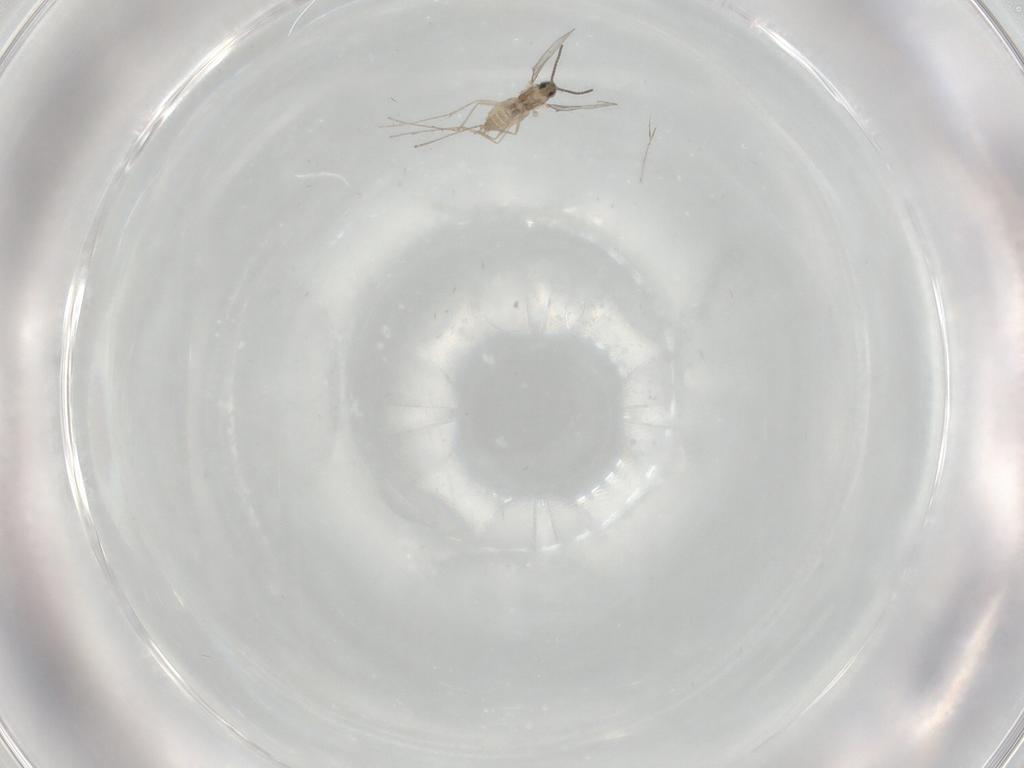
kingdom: Animalia
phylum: Arthropoda
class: Insecta
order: Diptera
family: Cecidomyiidae
